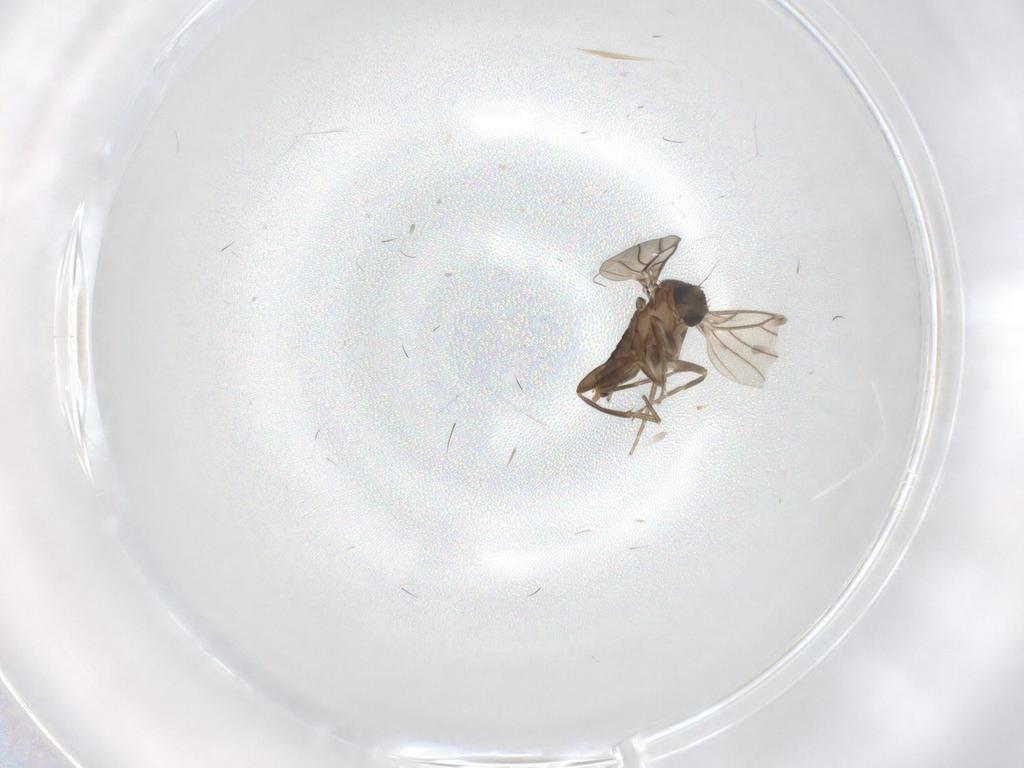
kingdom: Animalia
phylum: Arthropoda
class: Insecta
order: Diptera
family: Phoridae
